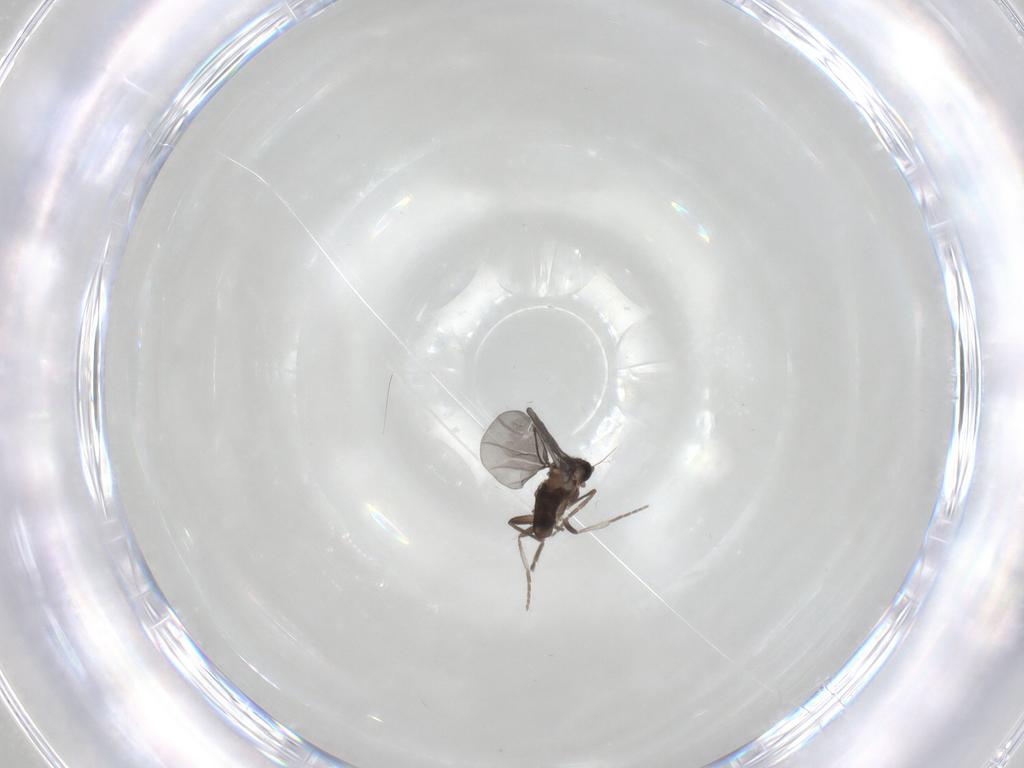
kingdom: Animalia
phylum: Arthropoda
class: Insecta
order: Diptera
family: Phoridae
